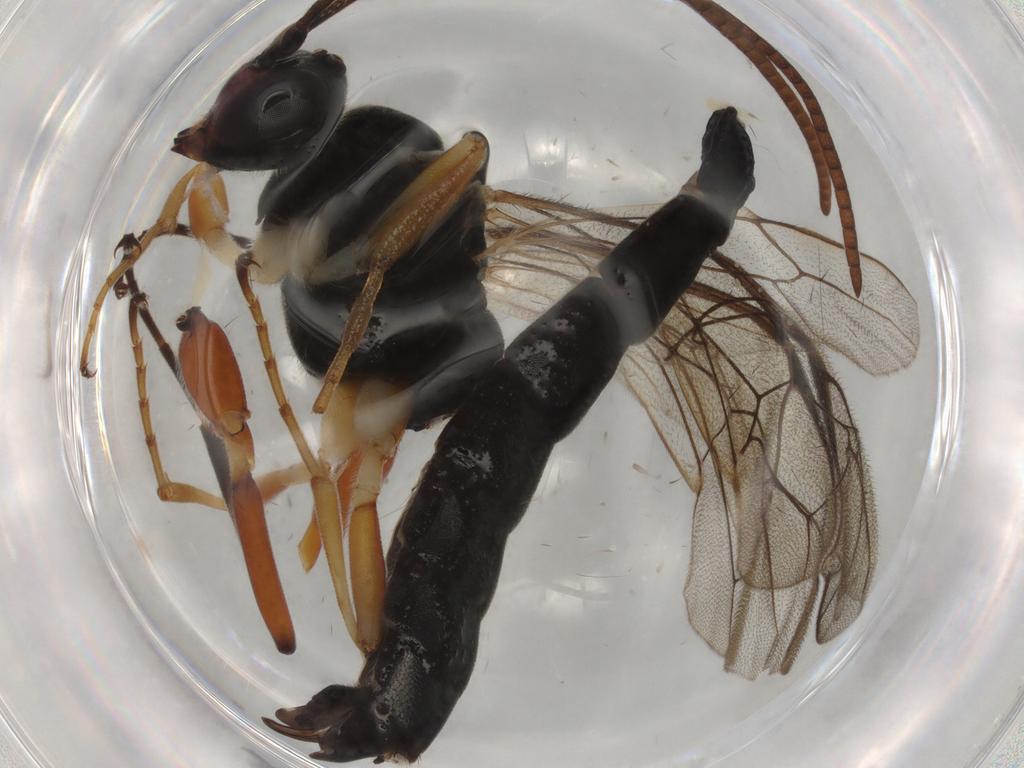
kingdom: Animalia
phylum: Arthropoda
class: Insecta
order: Hymenoptera
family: Ichneumonidae
